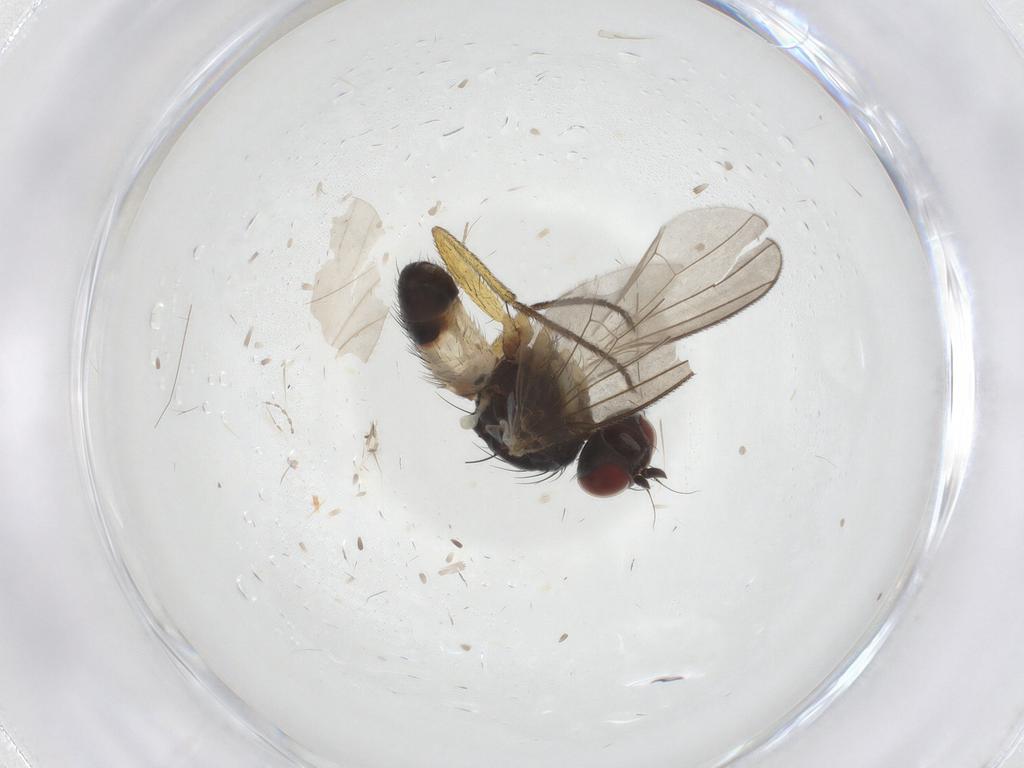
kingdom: Animalia
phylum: Arthropoda
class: Insecta
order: Diptera
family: Muscidae
